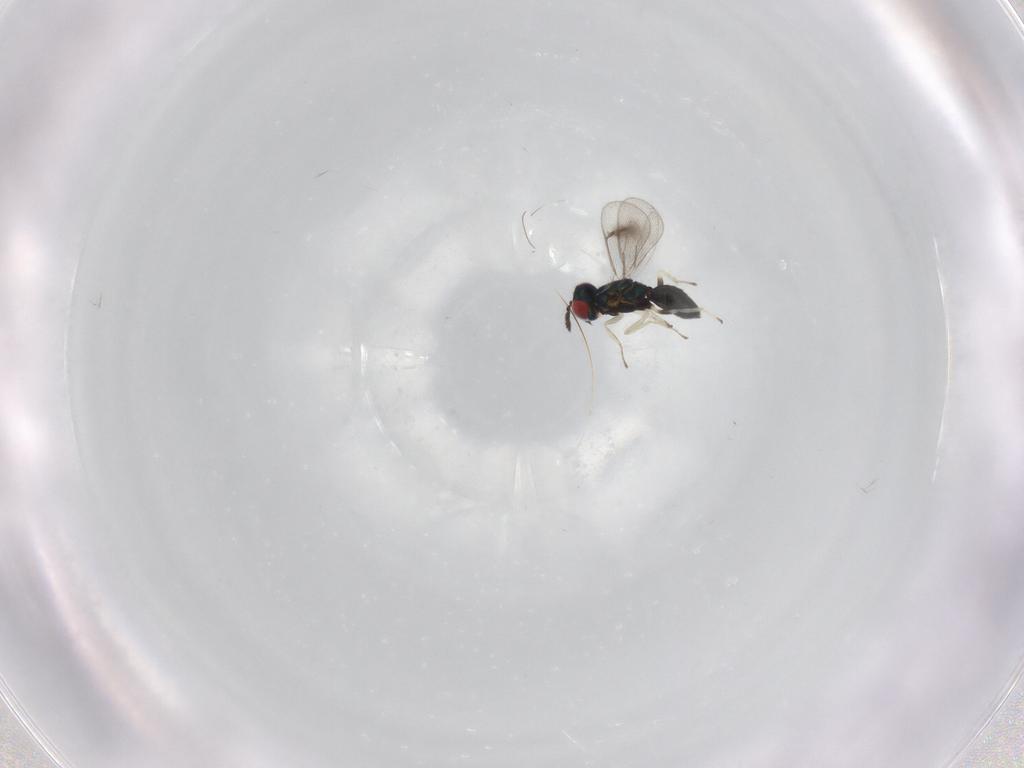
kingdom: Animalia
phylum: Arthropoda
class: Insecta
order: Hymenoptera
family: Eulophidae
